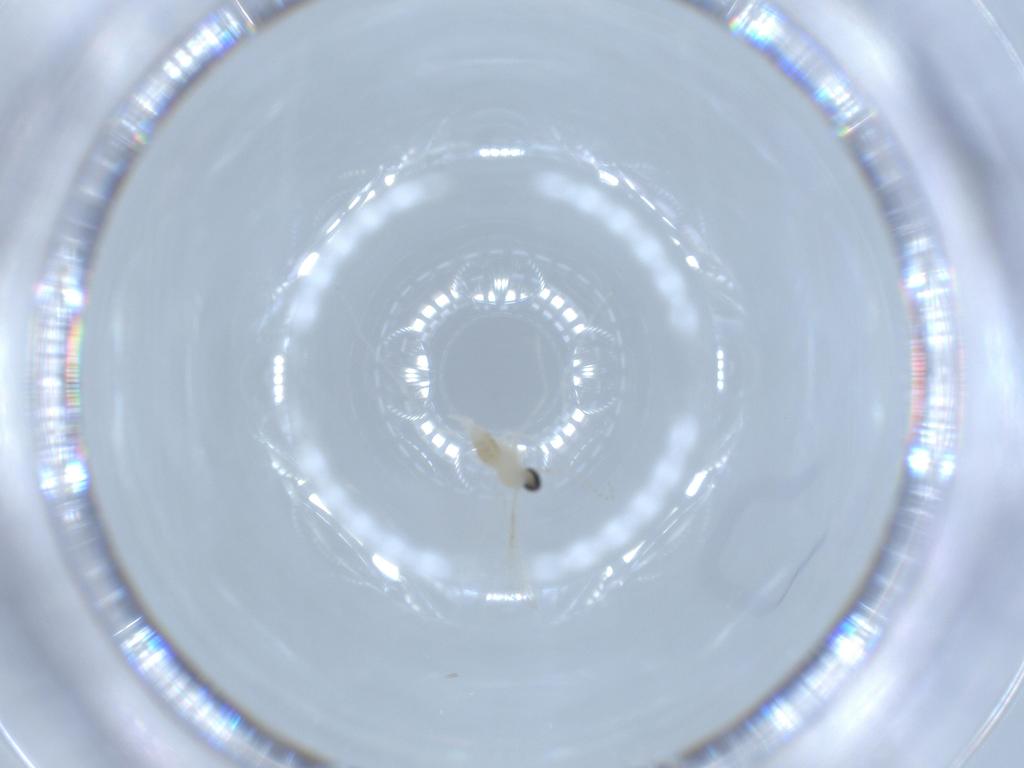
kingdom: Animalia
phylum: Arthropoda
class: Insecta
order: Diptera
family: Cecidomyiidae
